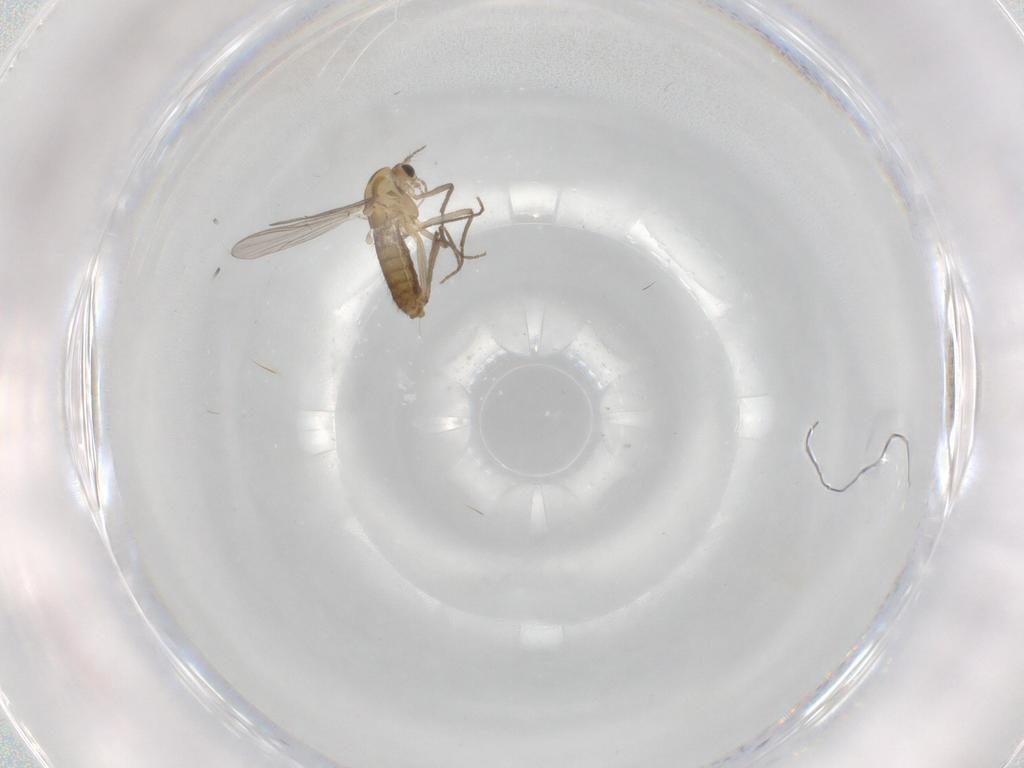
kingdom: Animalia
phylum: Arthropoda
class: Insecta
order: Diptera
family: Chironomidae
